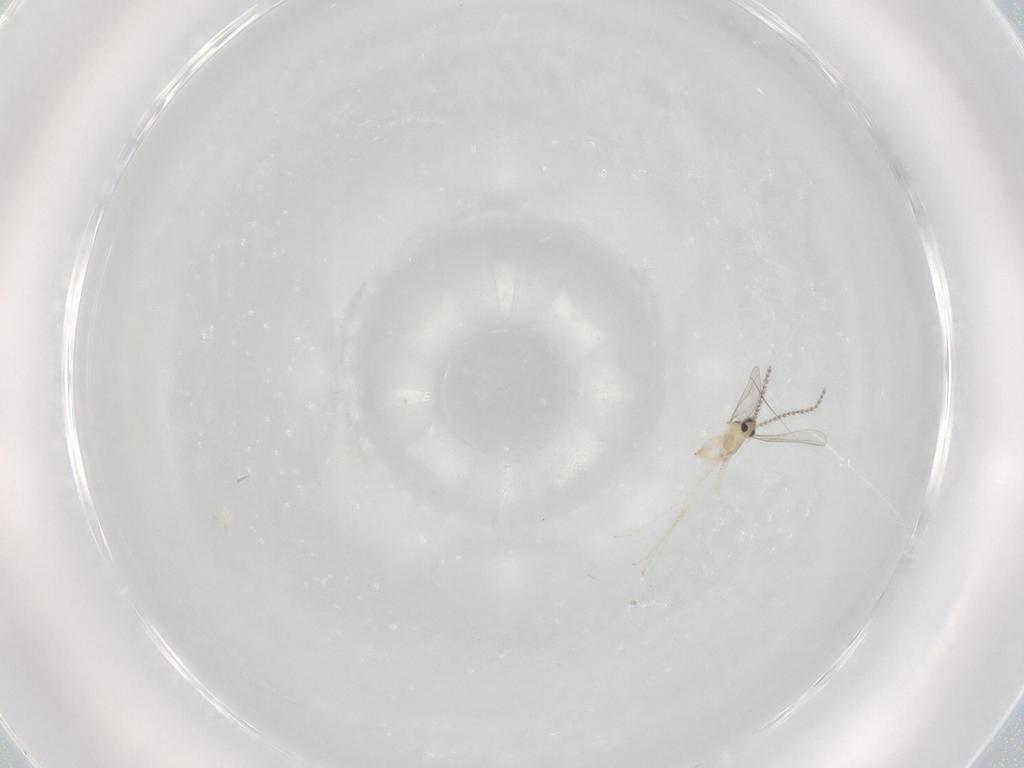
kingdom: Animalia
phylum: Arthropoda
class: Insecta
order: Diptera
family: Cecidomyiidae
